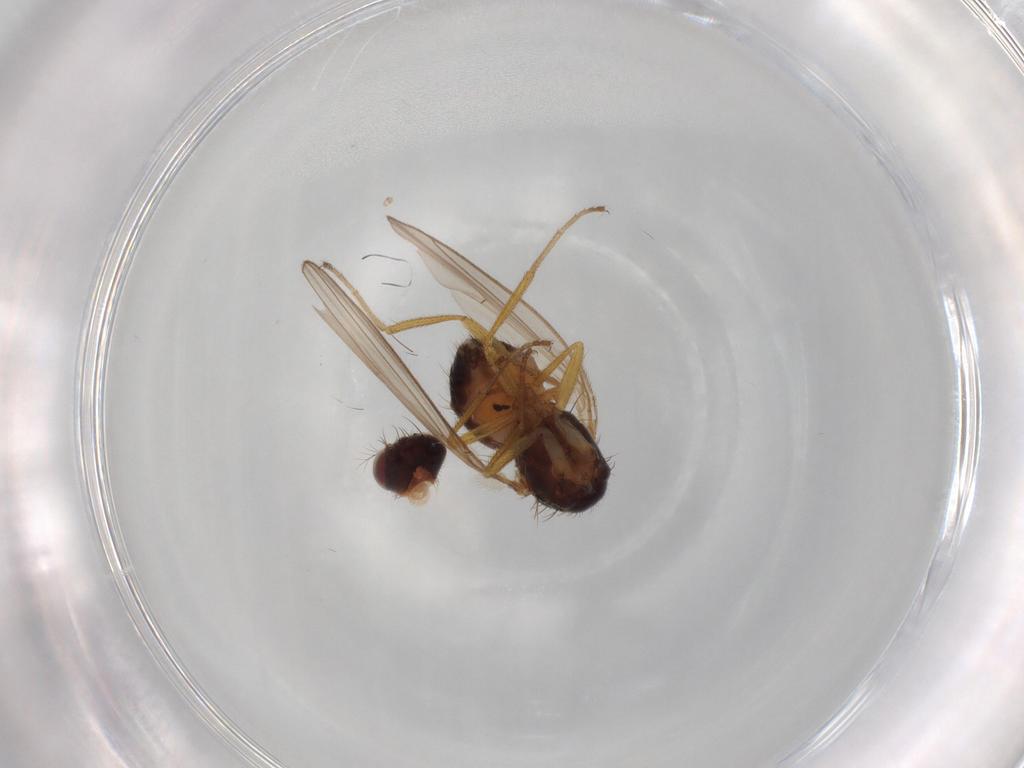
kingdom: Animalia
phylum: Arthropoda
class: Insecta
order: Diptera
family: Drosophilidae
